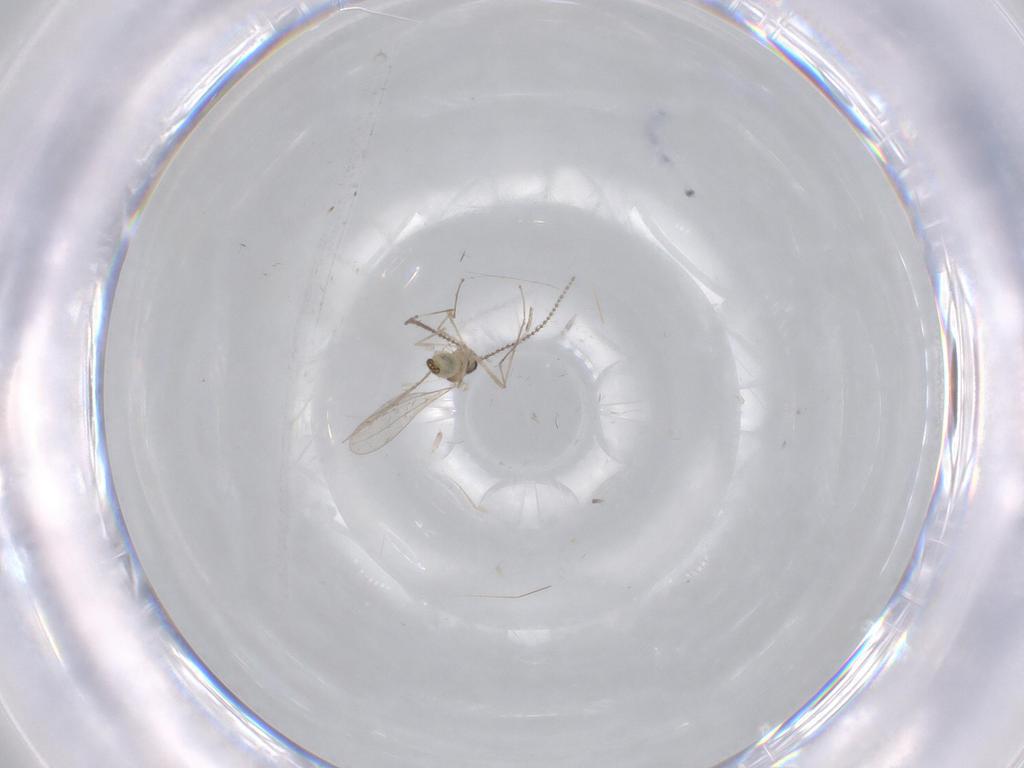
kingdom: Animalia
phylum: Arthropoda
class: Insecta
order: Diptera
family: Cecidomyiidae
